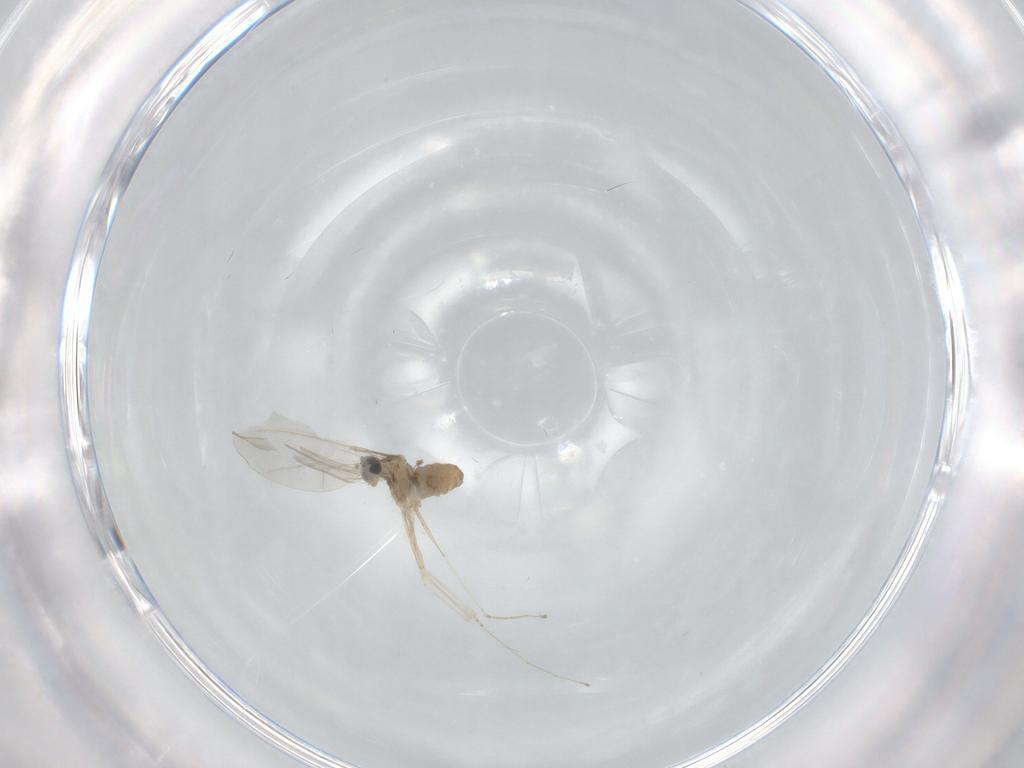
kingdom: Animalia
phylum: Arthropoda
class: Insecta
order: Diptera
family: Cecidomyiidae
